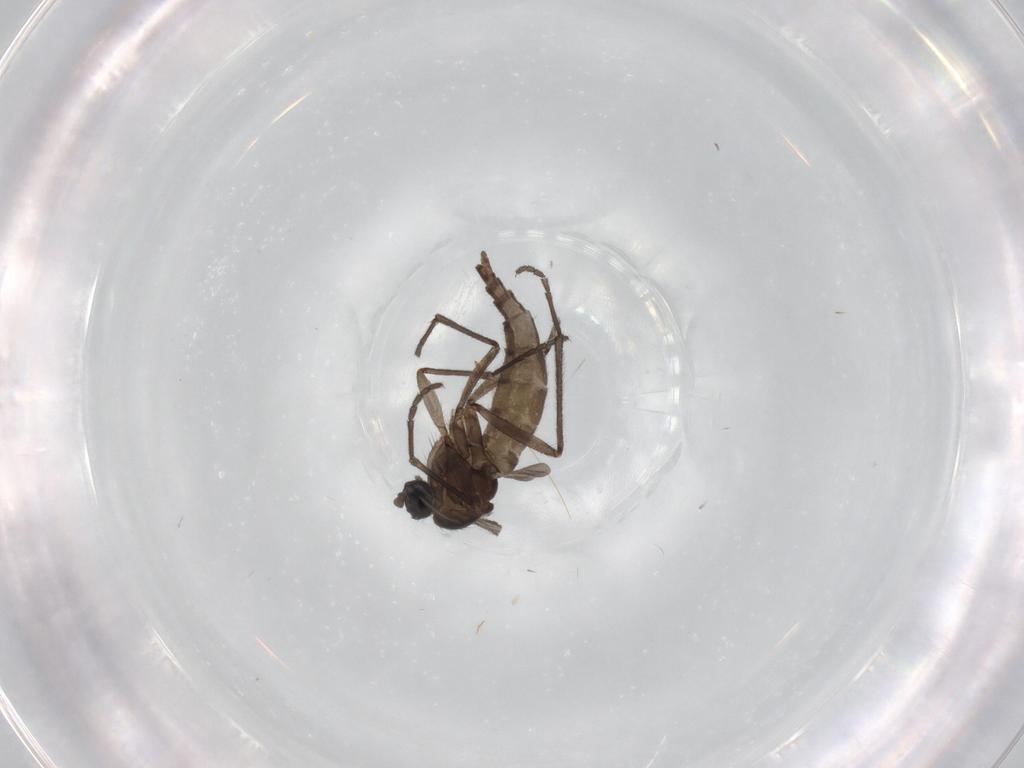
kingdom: Animalia
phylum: Arthropoda
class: Insecta
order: Diptera
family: Sciaridae
